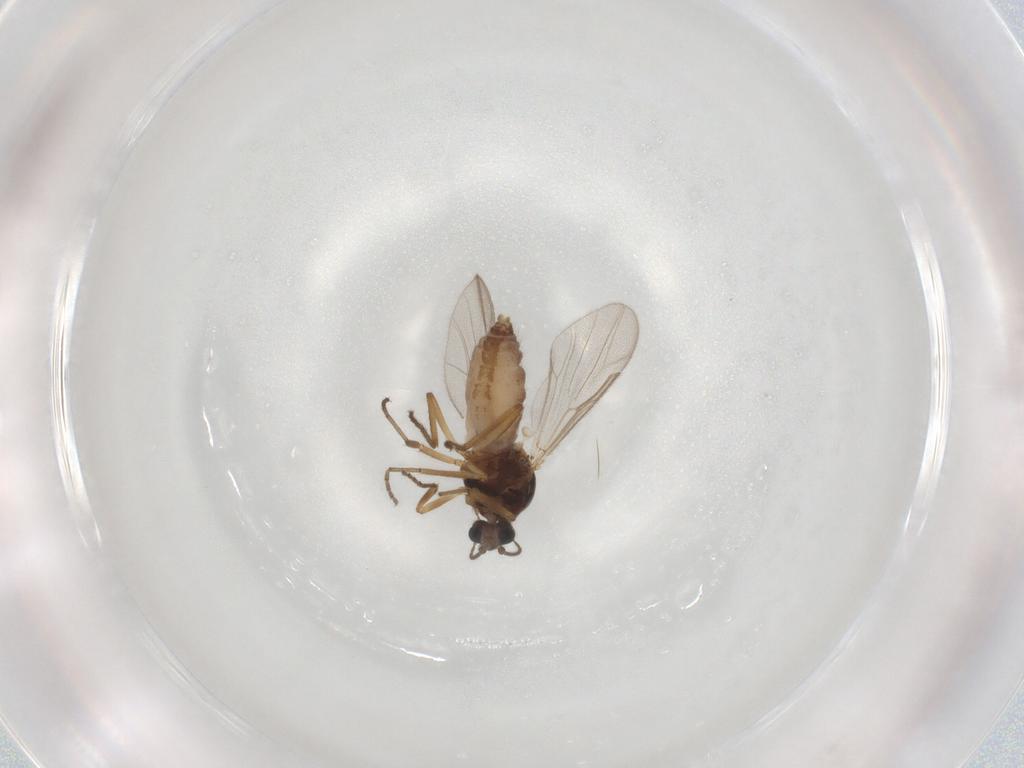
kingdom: Animalia
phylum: Arthropoda
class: Insecta
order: Diptera
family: Ceratopogonidae
